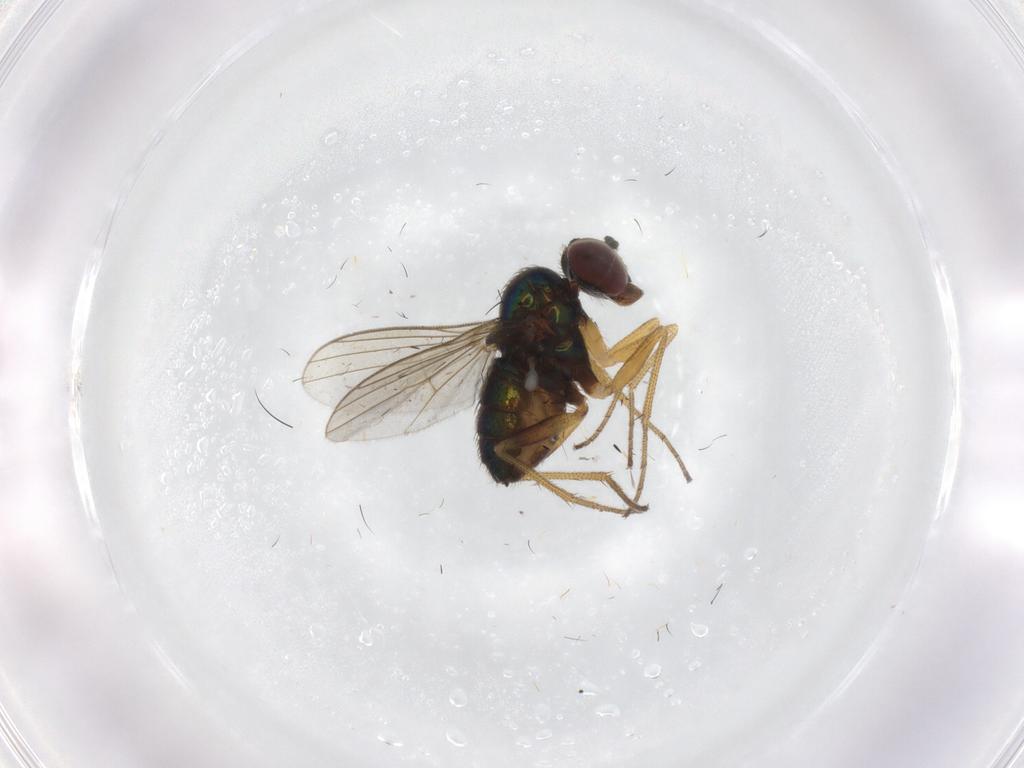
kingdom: Animalia
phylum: Arthropoda
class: Insecta
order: Diptera
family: Dolichopodidae
